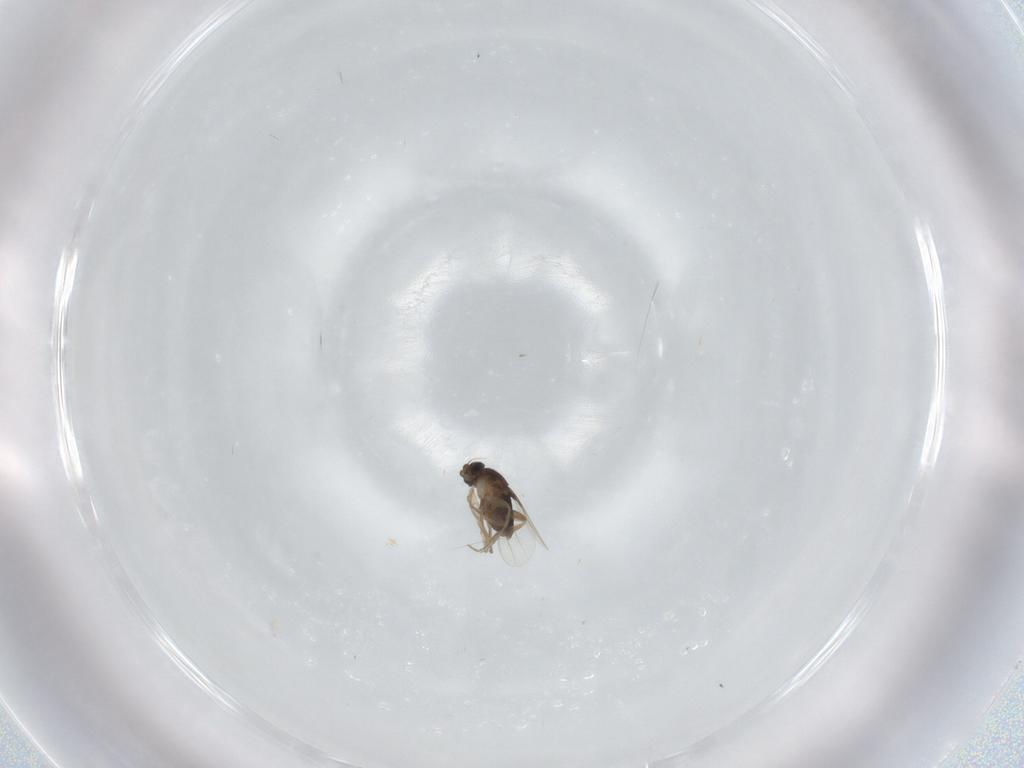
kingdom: Animalia
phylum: Arthropoda
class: Insecta
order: Diptera
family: Phoridae
